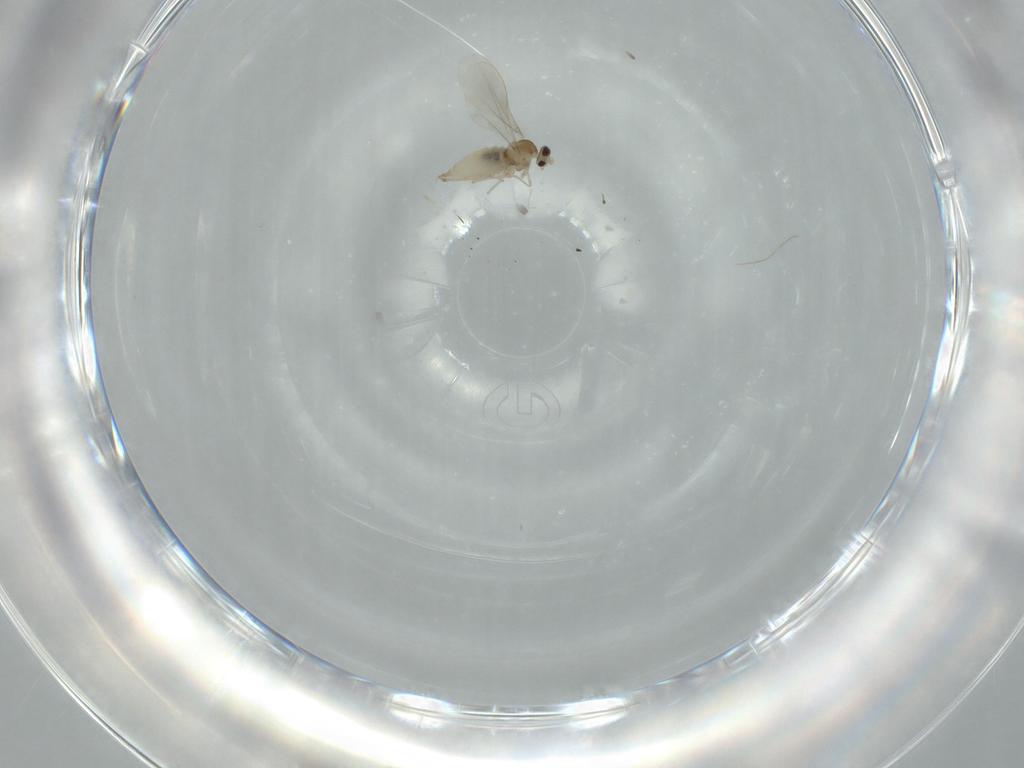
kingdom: Animalia
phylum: Arthropoda
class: Insecta
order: Diptera
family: Cecidomyiidae
